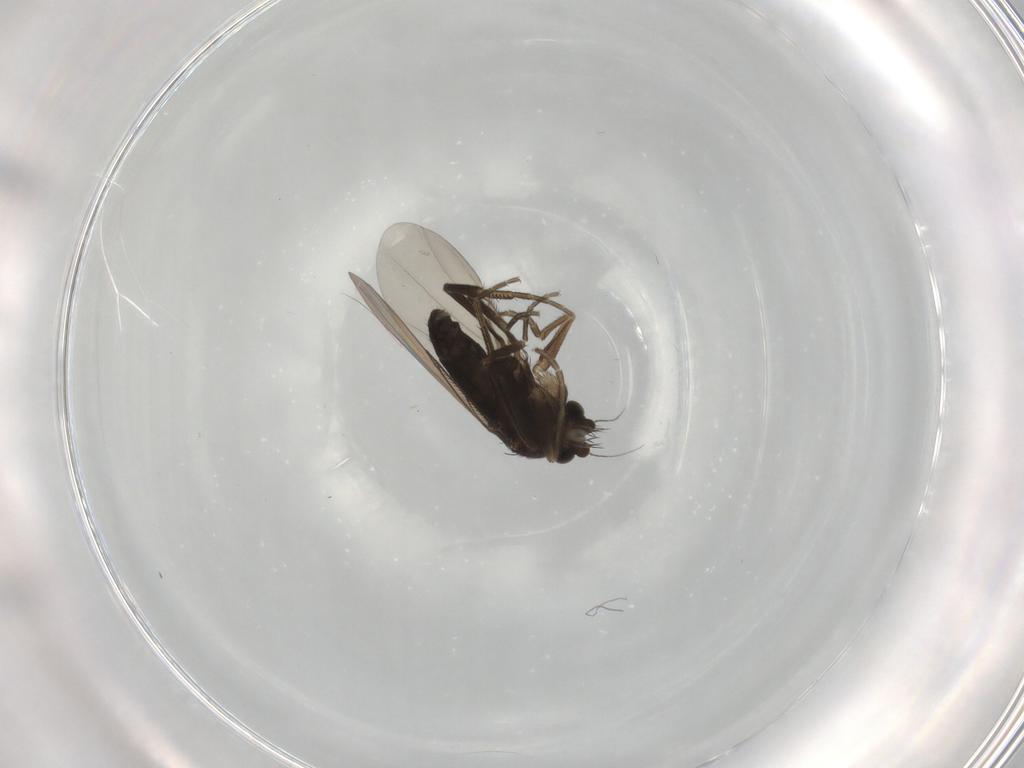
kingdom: Animalia
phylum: Arthropoda
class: Insecta
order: Diptera
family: Phoridae
